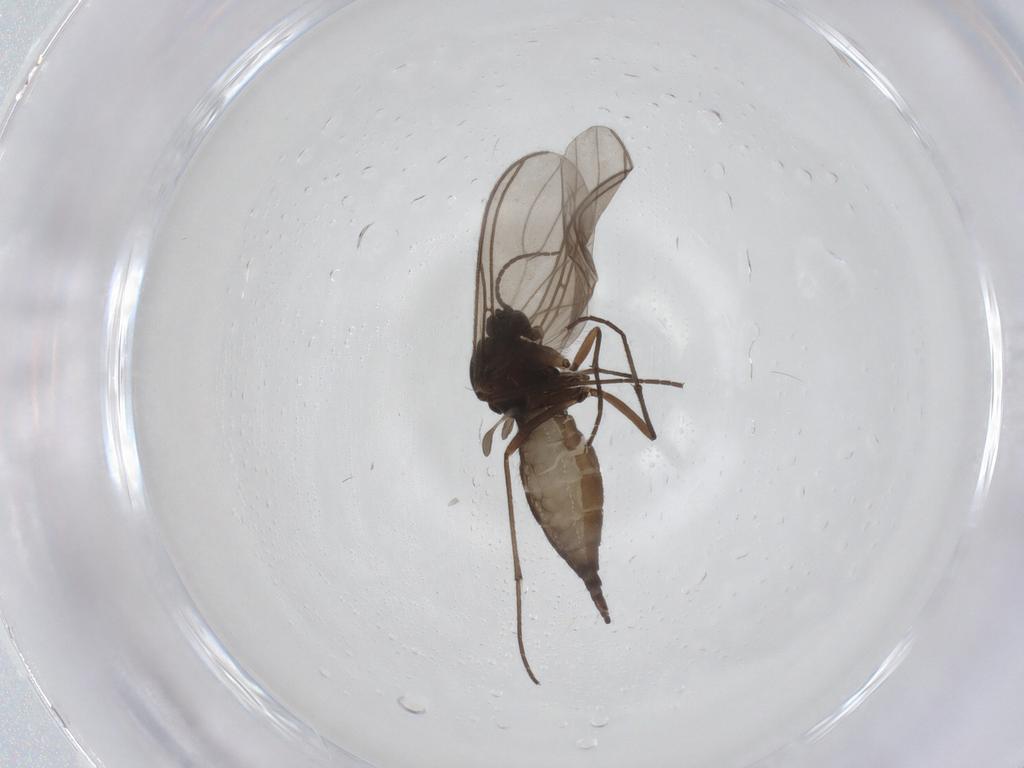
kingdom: Animalia
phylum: Arthropoda
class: Insecta
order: Diptera
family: Sciaridae
